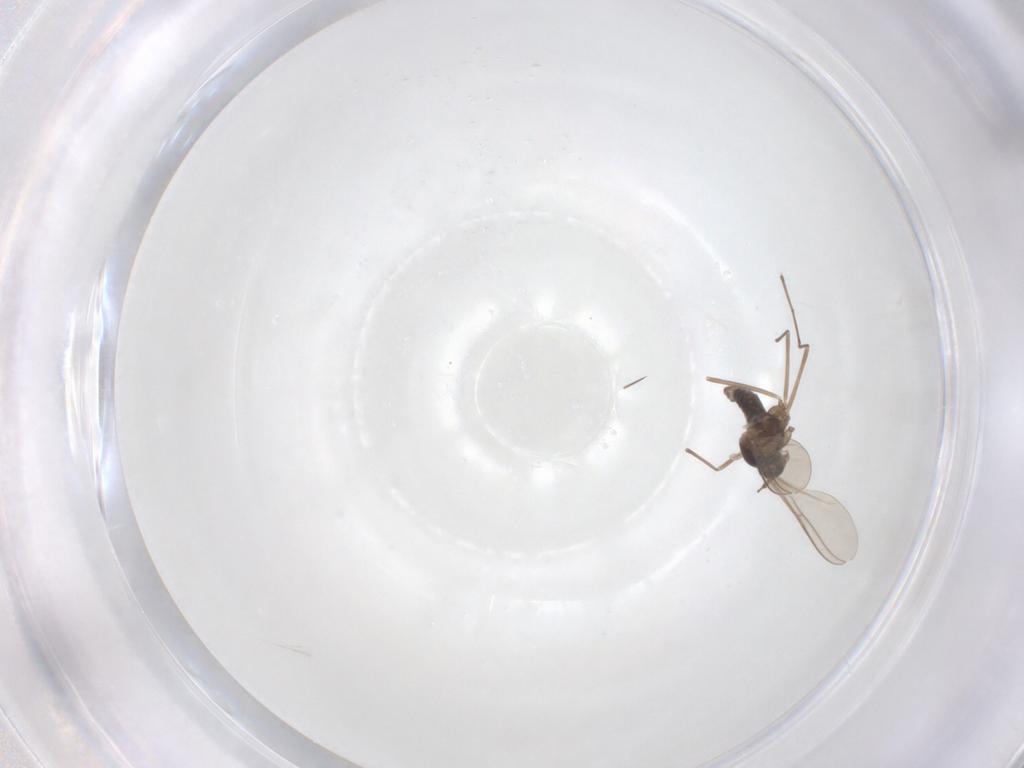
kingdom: Animalia
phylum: Arthropoda
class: Insecta
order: Diptera
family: Cecidomyiidae
